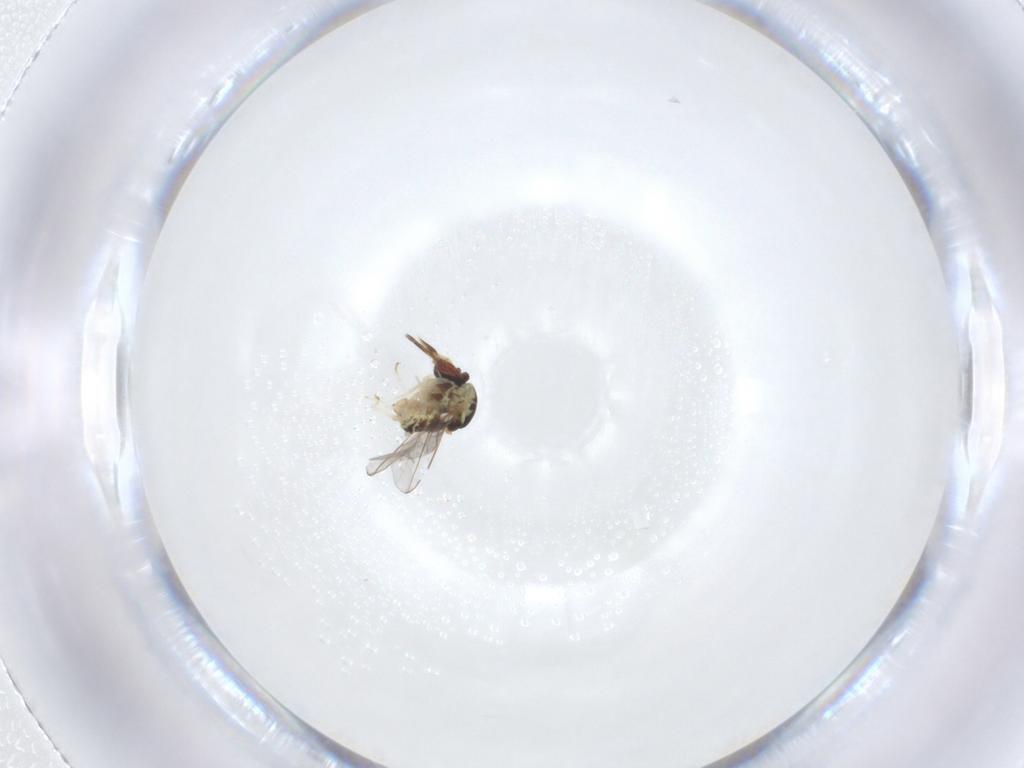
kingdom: Animalia
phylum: Arthropoda
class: Insecta
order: Diptera
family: Mythicomyiidae
